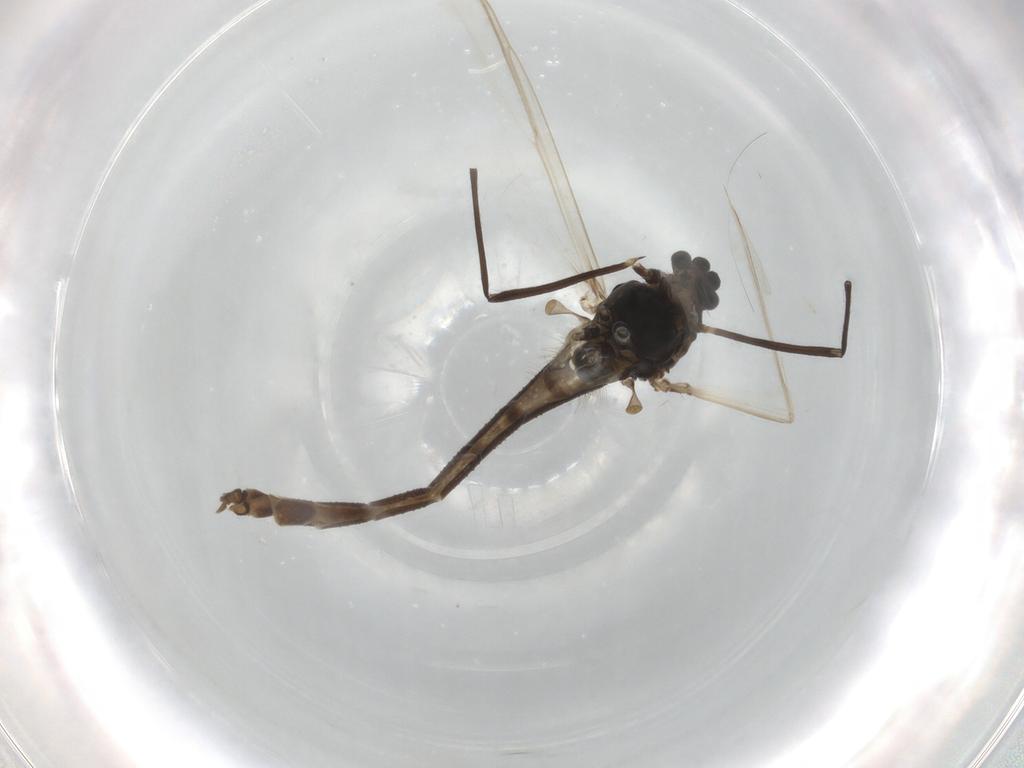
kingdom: Animalia
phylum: Arthropoda
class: Insecta
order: Diptera
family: Chironomidae
